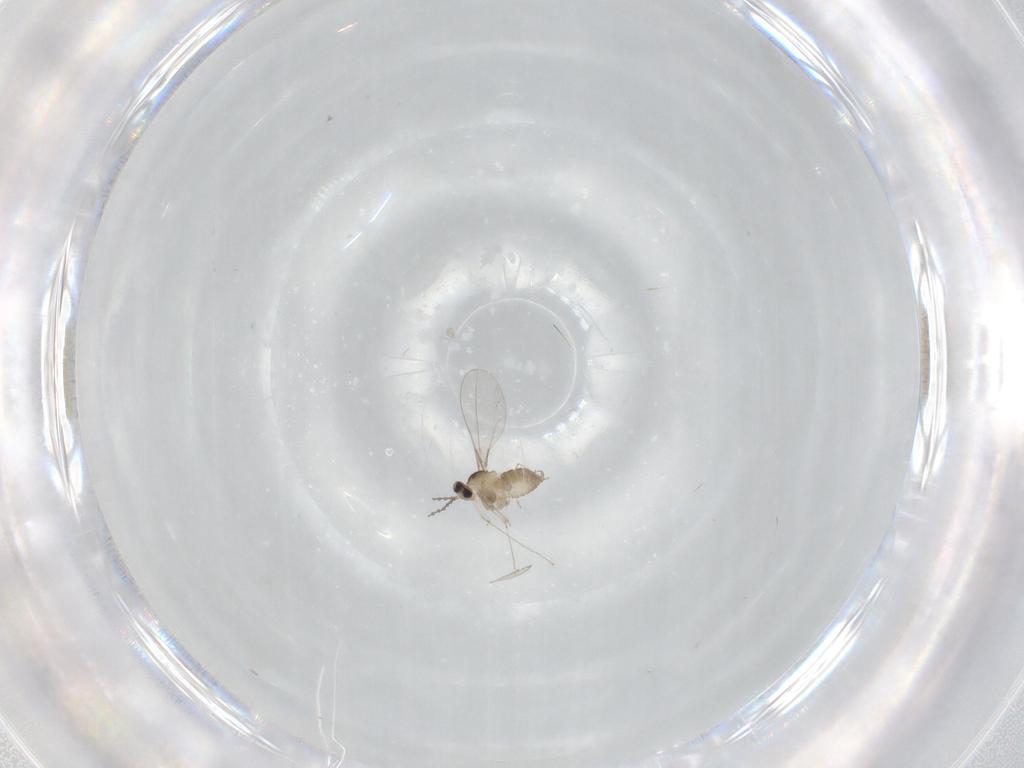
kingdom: Animalia
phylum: Arthropoda
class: Insecta
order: Diptera
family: Cecidomyiidae
